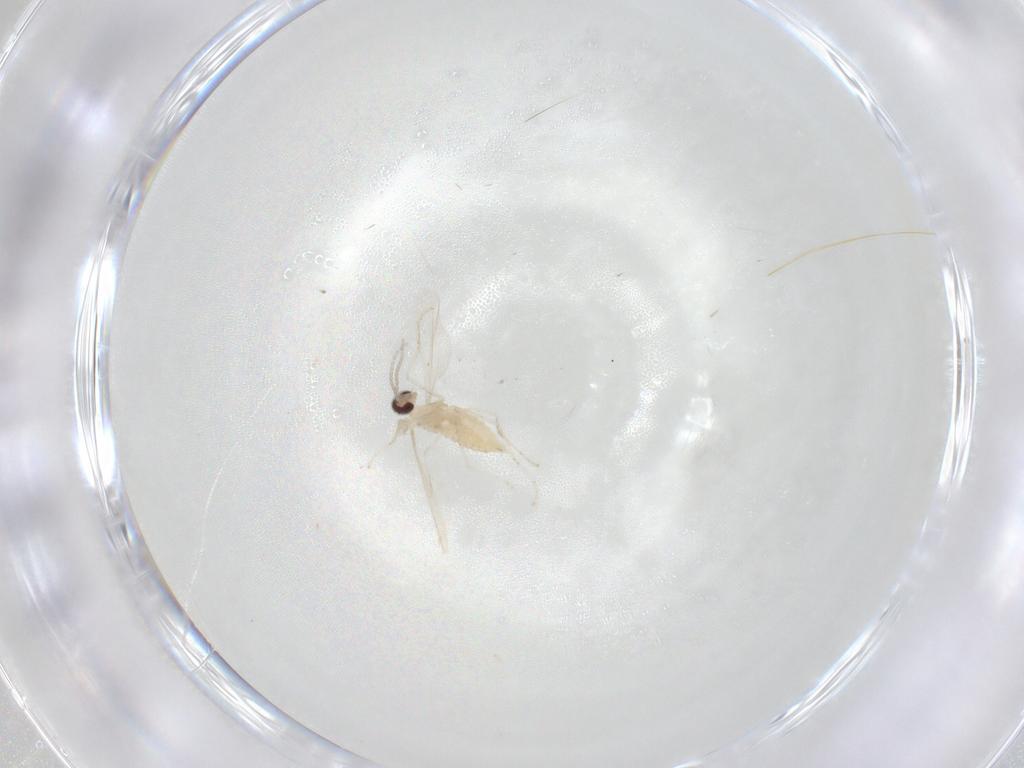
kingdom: Animalia
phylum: Arthropoda
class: Insecta
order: Diptera
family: Cecidomyiidae
